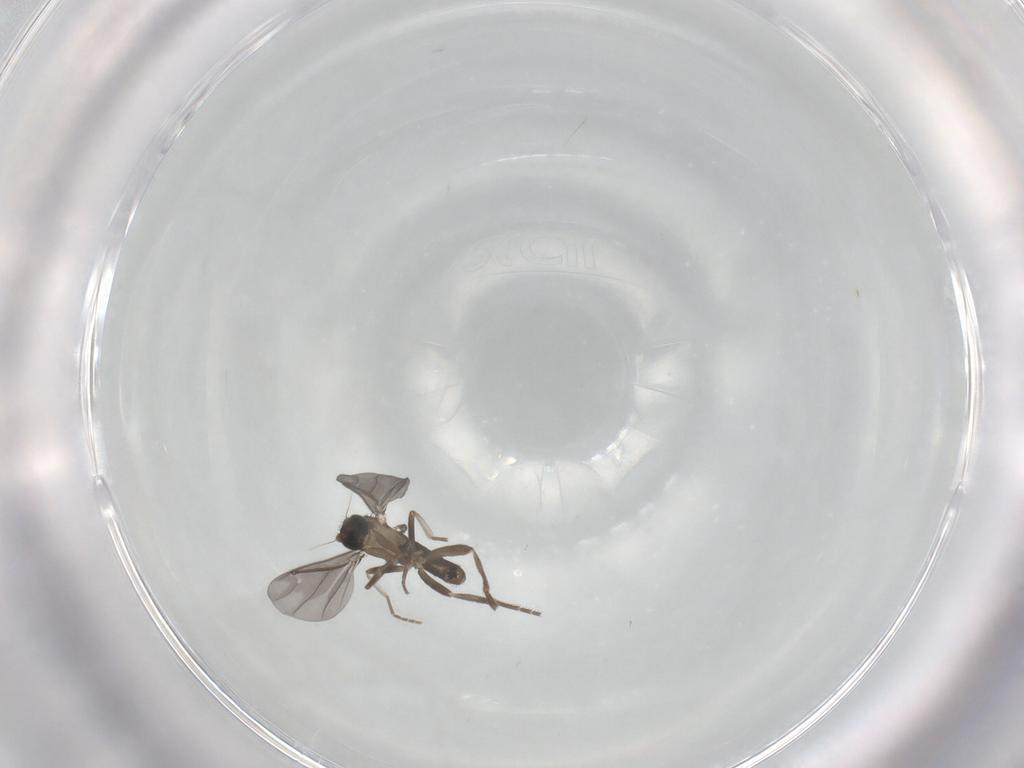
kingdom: Animalia
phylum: Arthropoda
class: Insecta
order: Diptera
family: Phoridae
